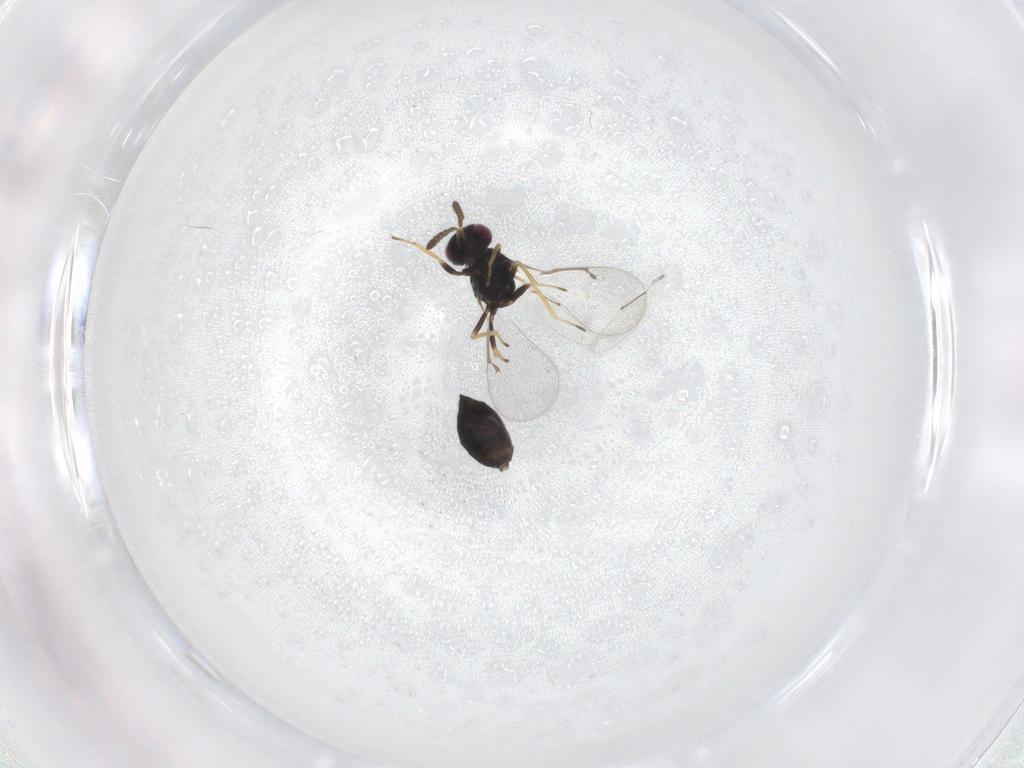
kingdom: Animalia
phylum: Arthropoda
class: Insecta
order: Hymenoptera
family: Eulophidae
